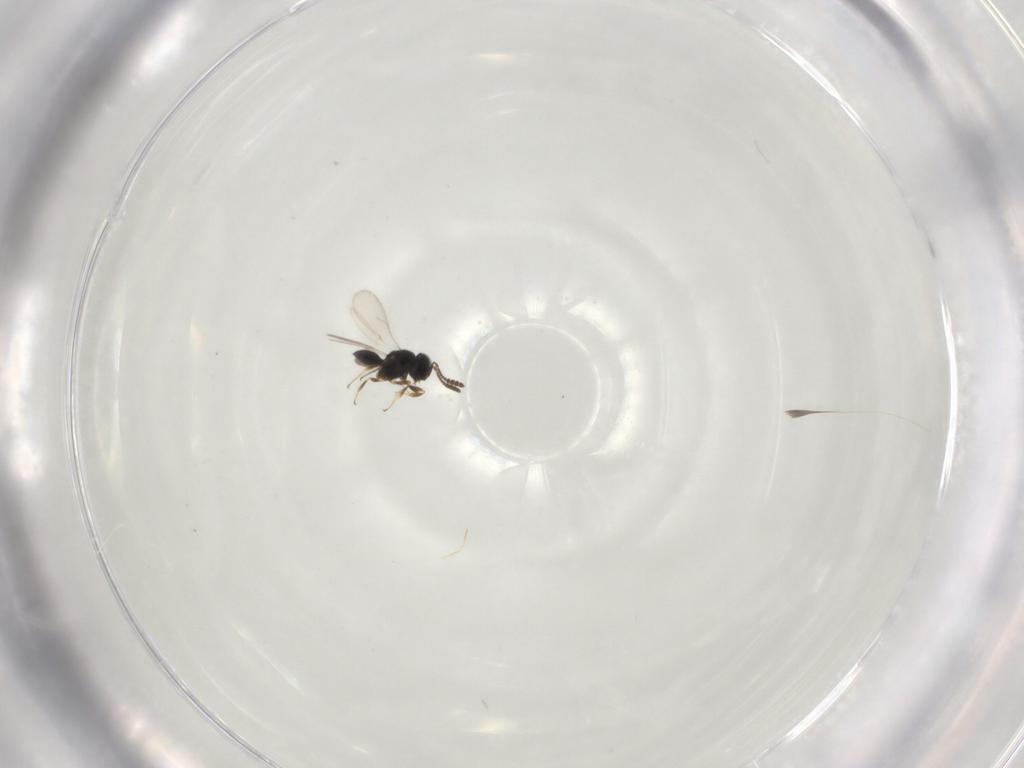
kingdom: Animalia
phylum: Arthropoda
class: Insecta
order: Hymenoptera
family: Scelionidae
